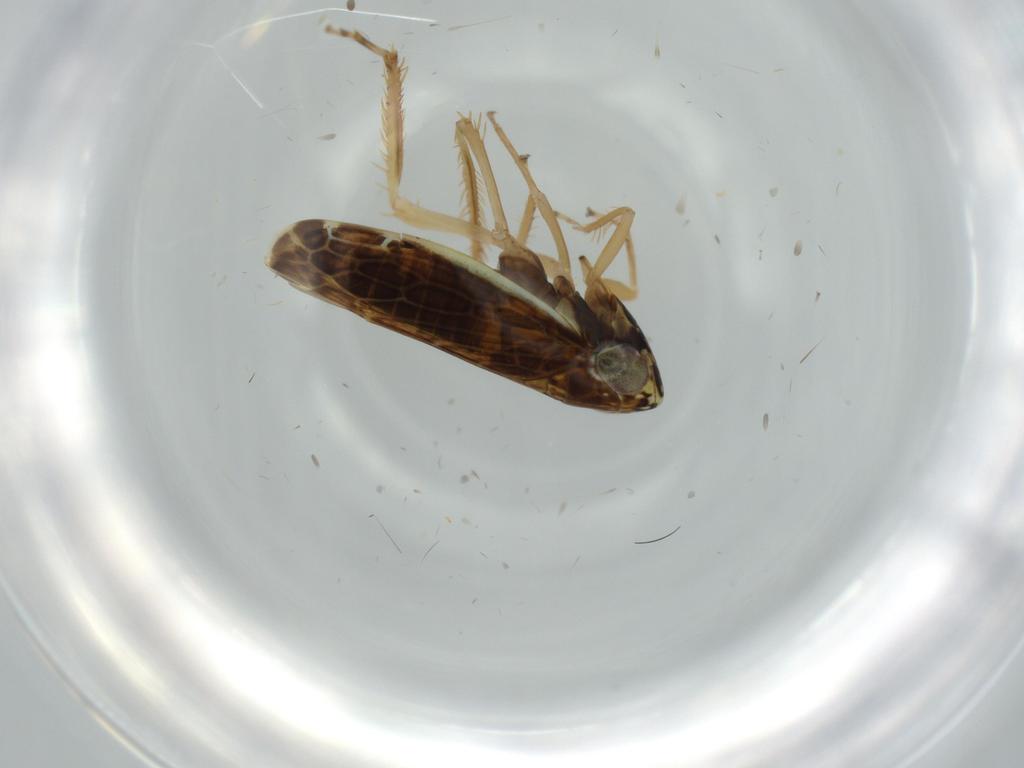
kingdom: Animalia
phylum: Arthropoda
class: Insecta
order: Hemiptera
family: Cicadellidae
